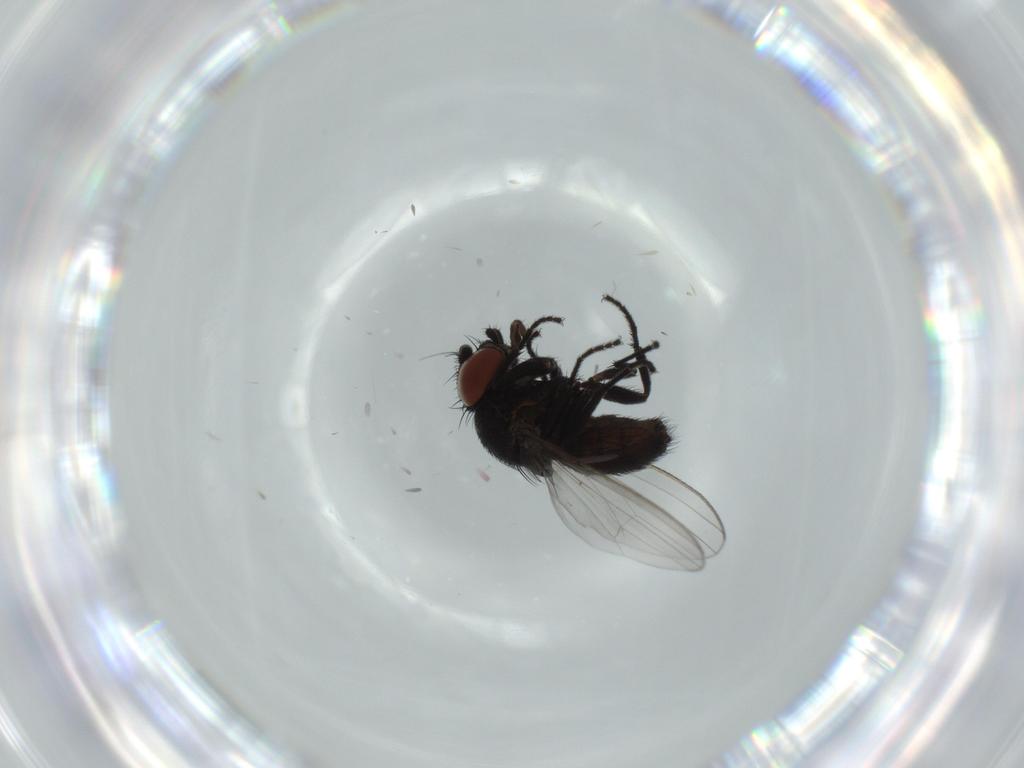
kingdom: Animalia
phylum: Arthropoda
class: Insecta
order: Diptera
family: Milichiidae
